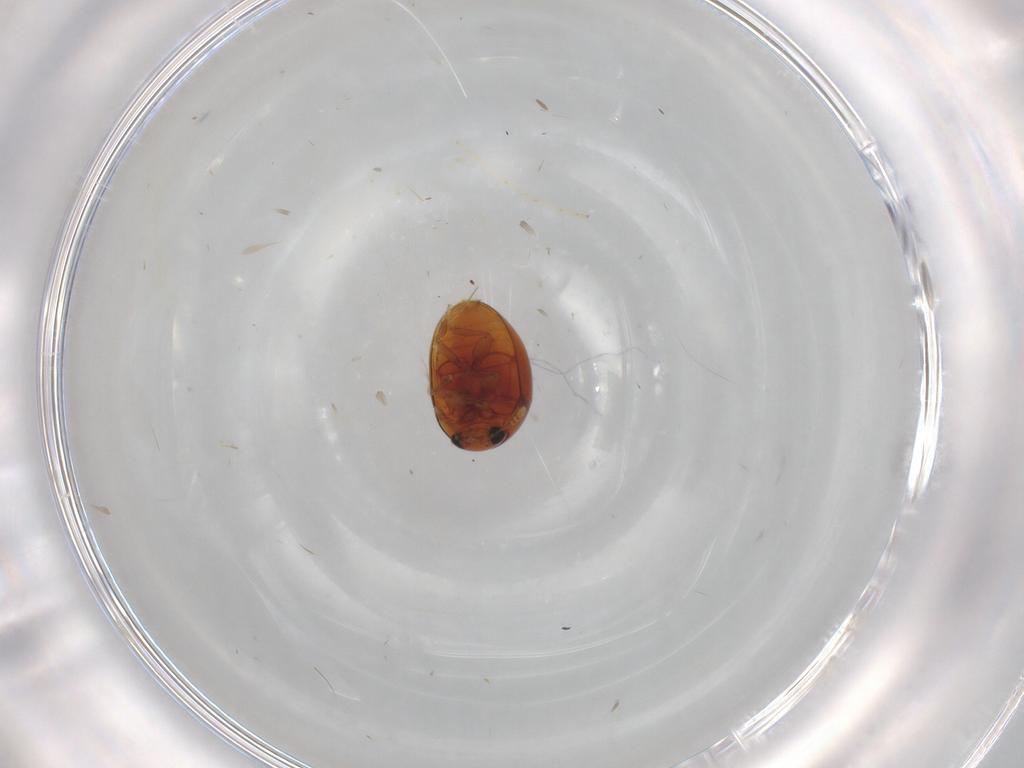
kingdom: Animalia
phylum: Arthropoda
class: Insecta
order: Coleoptera
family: Phalacridae
